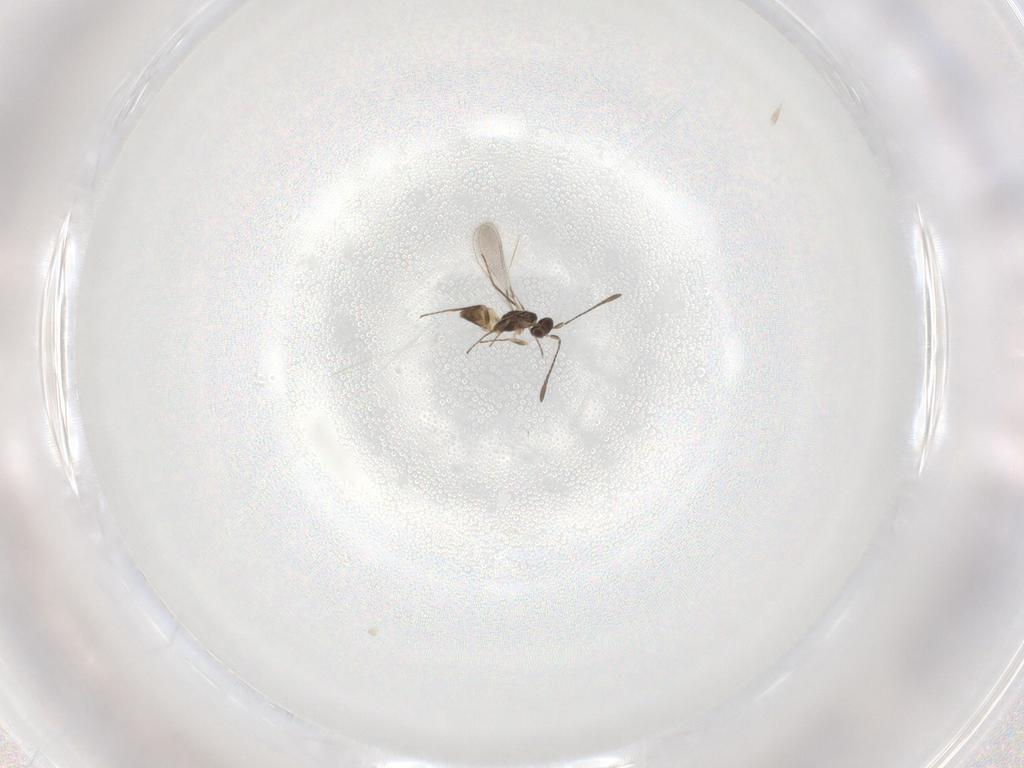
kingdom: Animalia
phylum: Arthropoda
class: Insecta
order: Hymenoptera
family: Mymaridae
